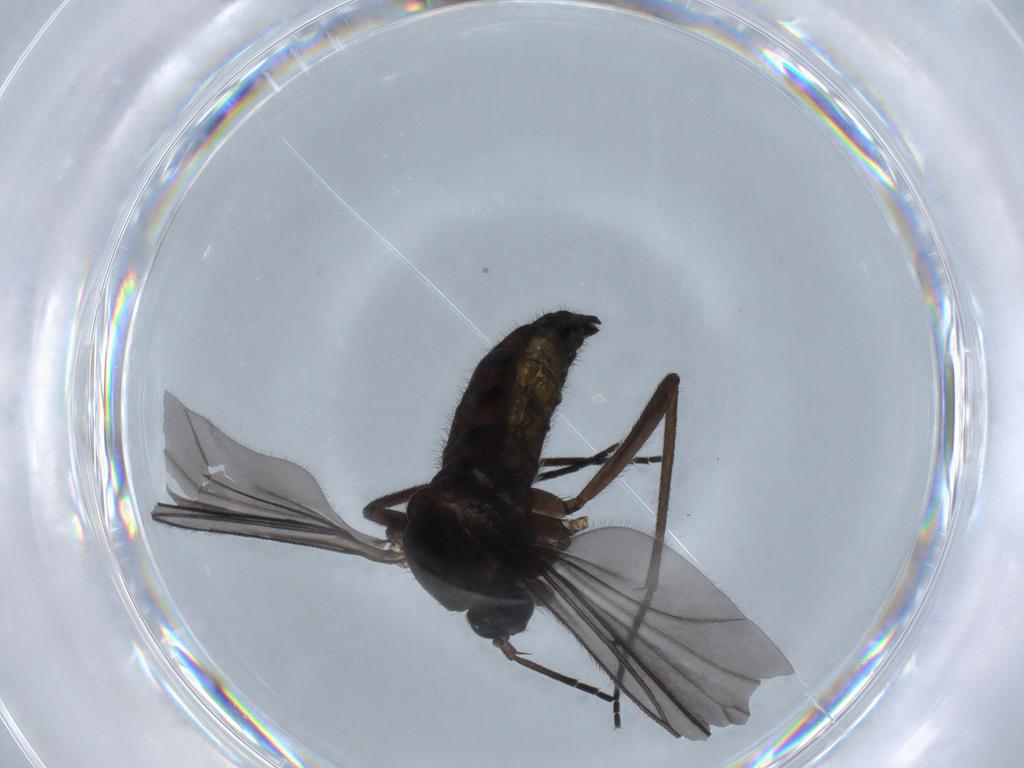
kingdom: Animalia
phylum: Arthropoda
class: Insecta
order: Diptera
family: Sciaridae
